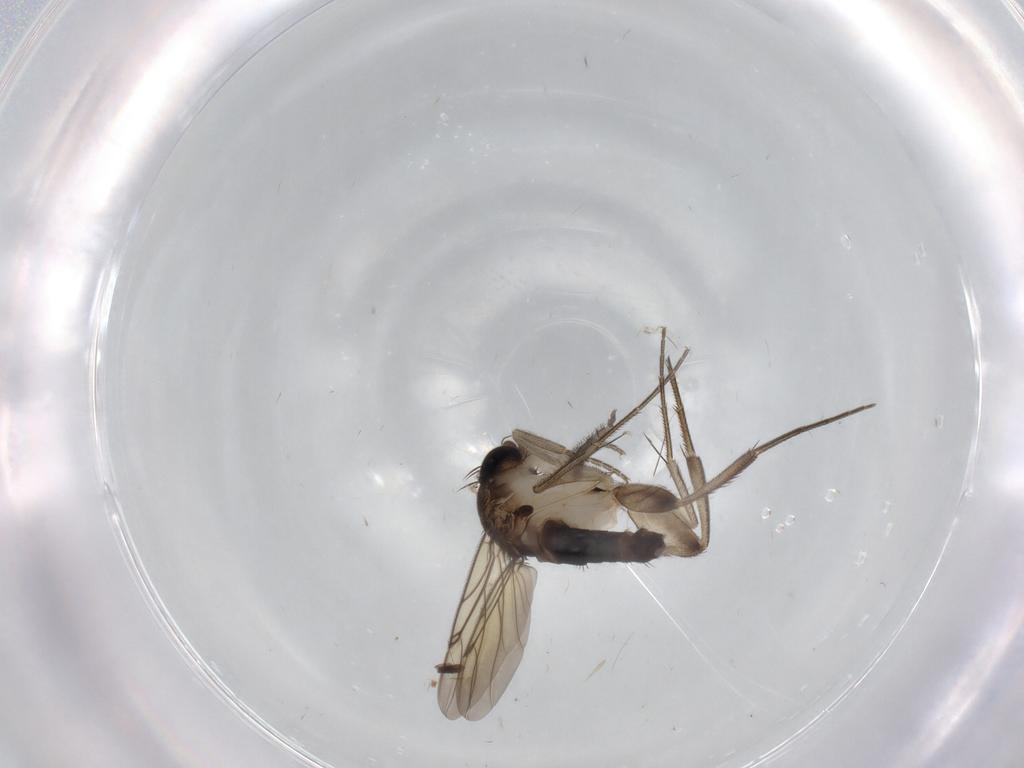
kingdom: Animalia
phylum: Arthropoda
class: Insecta
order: Diptera
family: Phoridae
